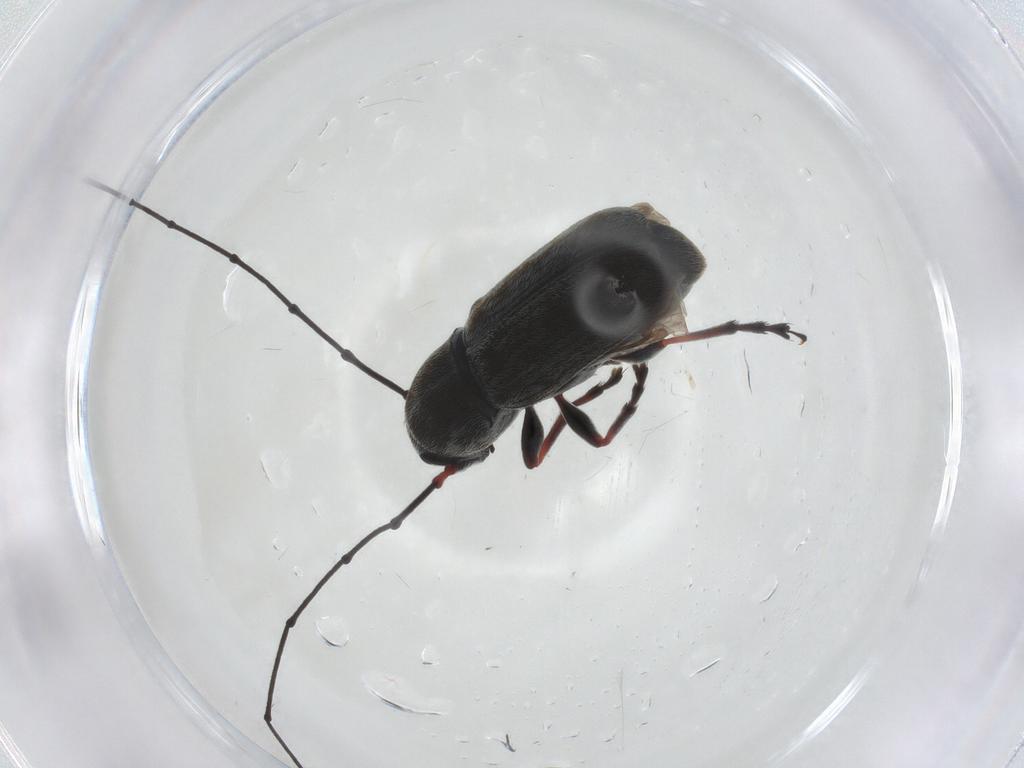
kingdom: Animalia
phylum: Arthropoda
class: Insecta
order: Coleoptera
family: Anthribidae
